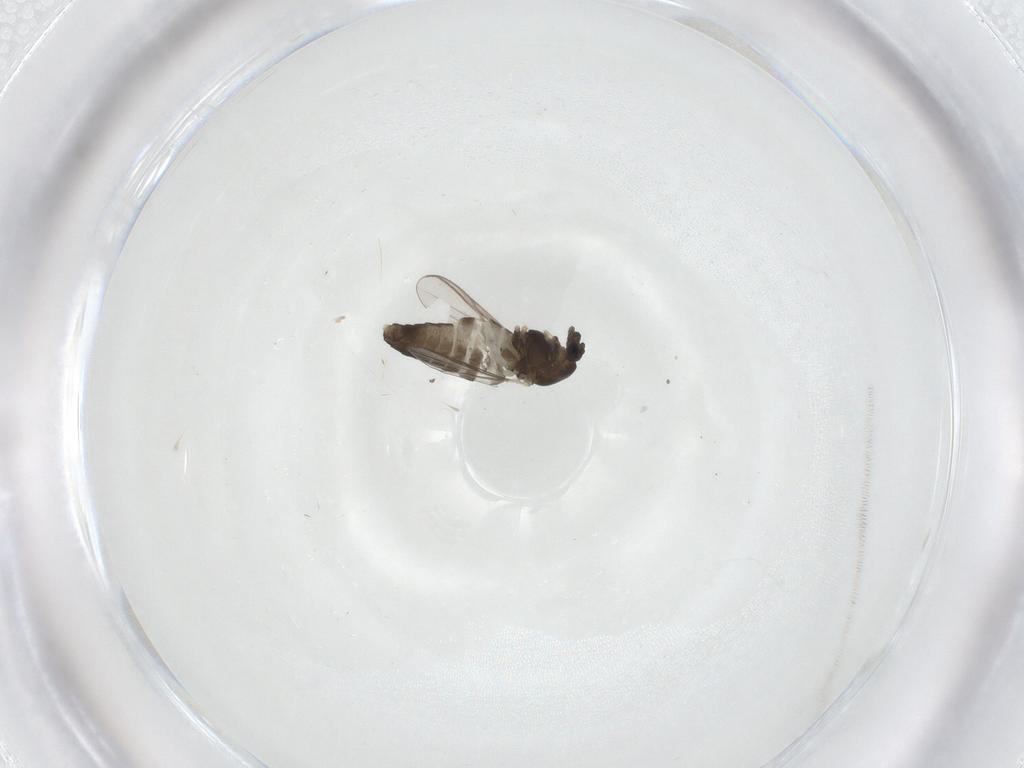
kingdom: Animalia
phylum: Arthropoda
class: Insecta
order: Diptera
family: Chironomidae
